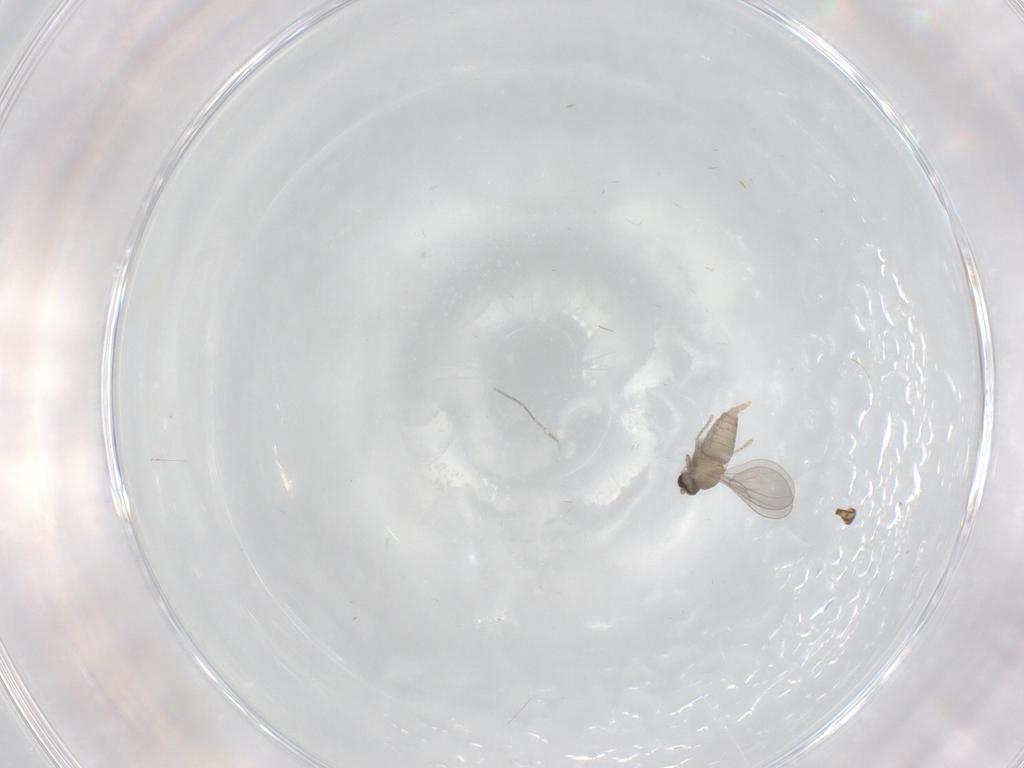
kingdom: Animalia
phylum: Arthropoda
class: Insecta
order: Diptera
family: Cecidomyiidae
